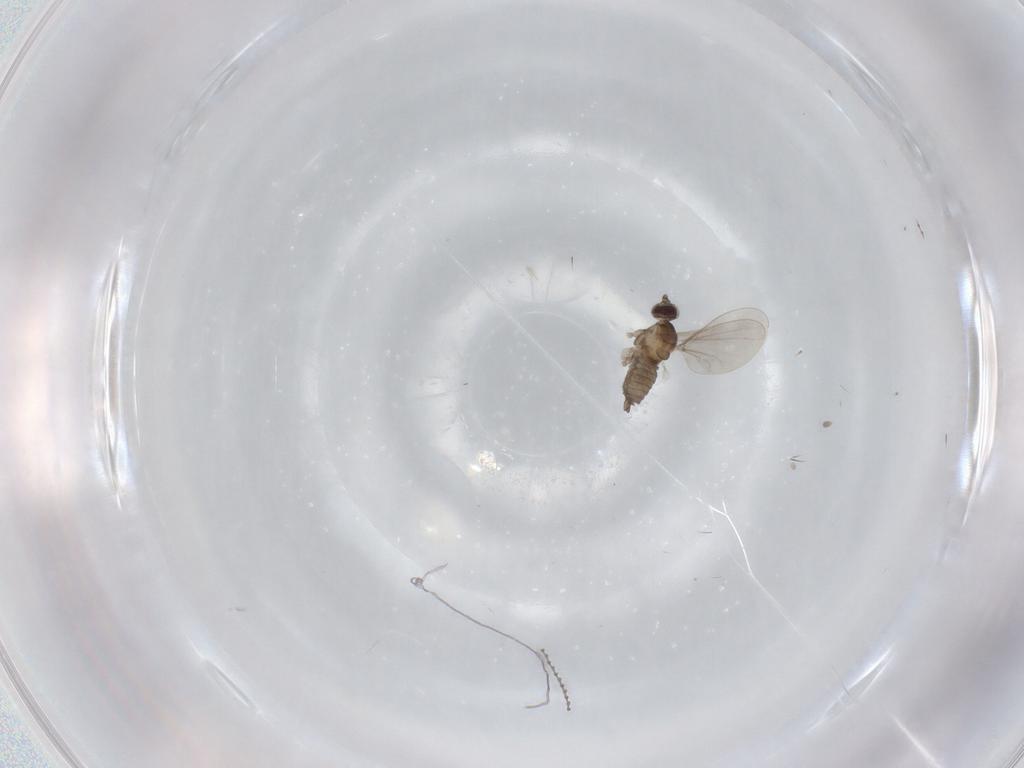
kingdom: Animalia
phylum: Arthropoda
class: Insecta
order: Diptera
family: Cecidomyiidae
